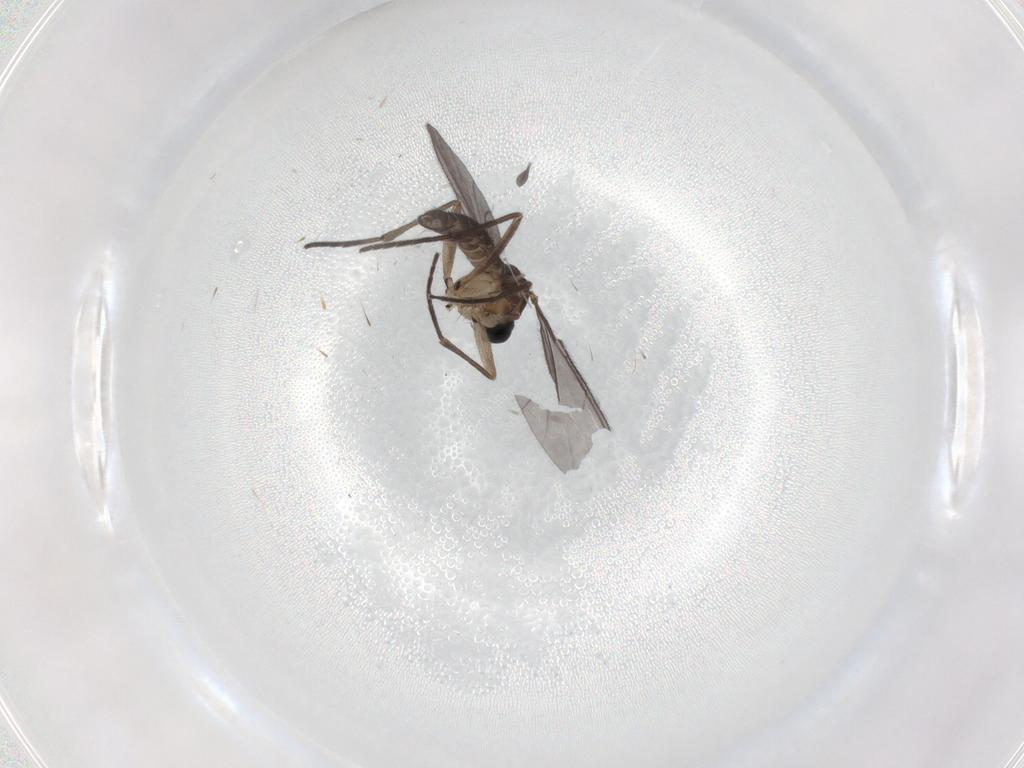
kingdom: Animalia
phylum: Arthropoda
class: Insecta
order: Diptera
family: Sciaridae
